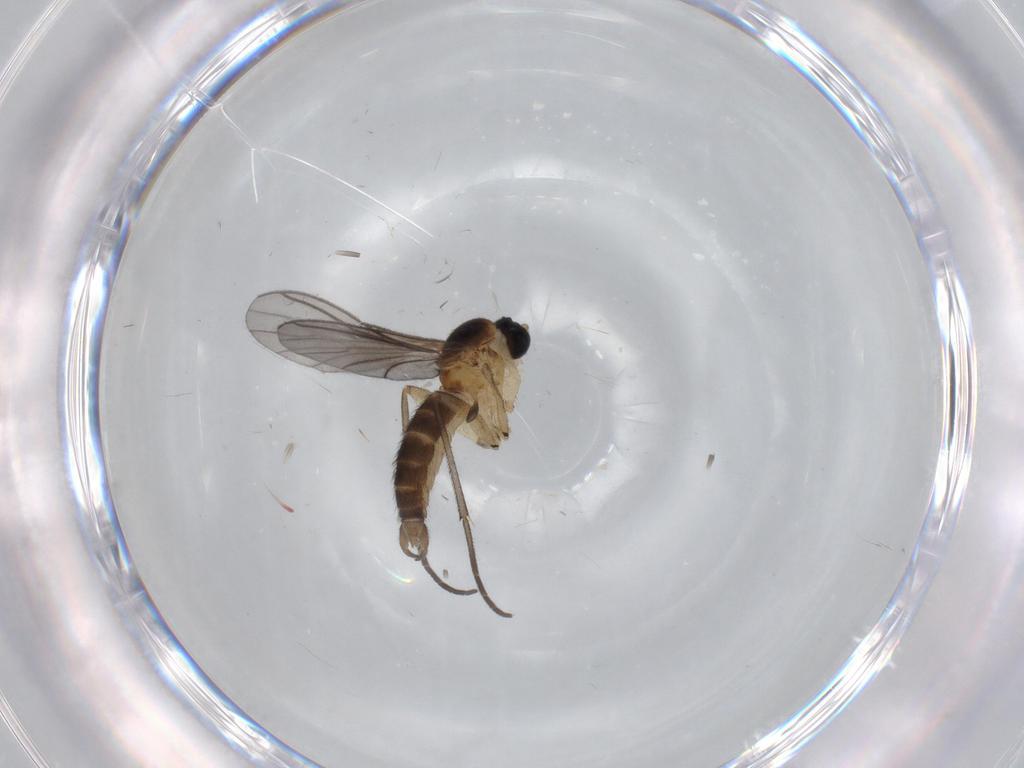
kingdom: Animalia
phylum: Arthropoda
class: Insecta
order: Diptera
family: Sciaridae
